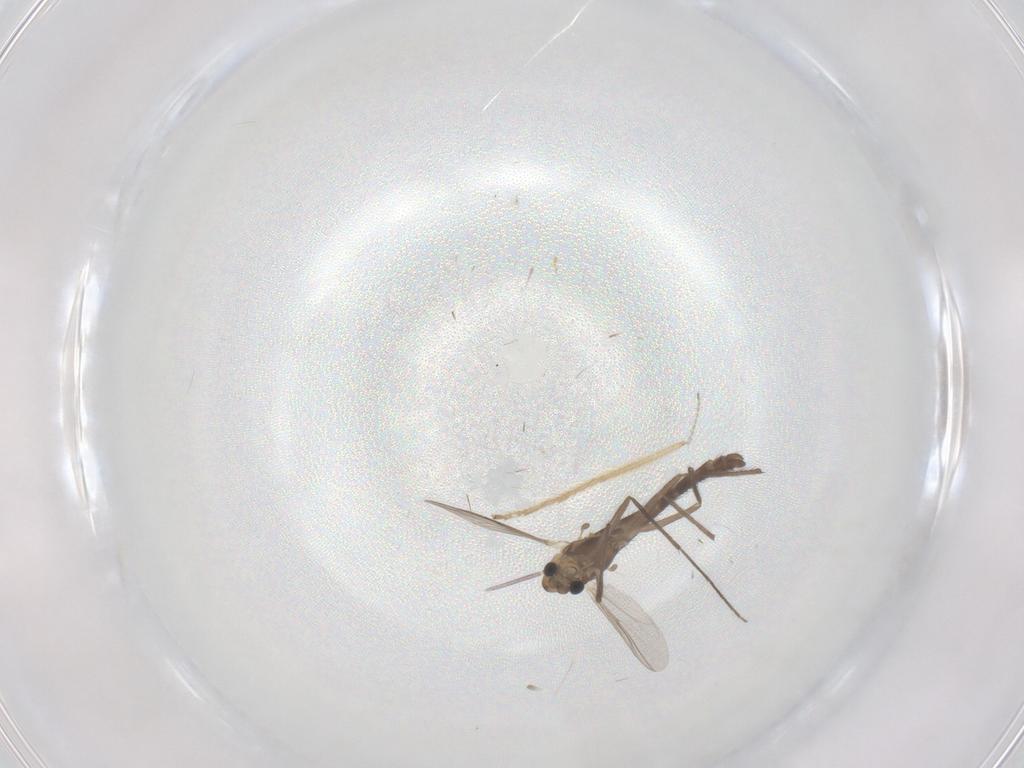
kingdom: Animalia
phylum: Arthropoda
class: Insecta
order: Diptera
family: Chironomidae
